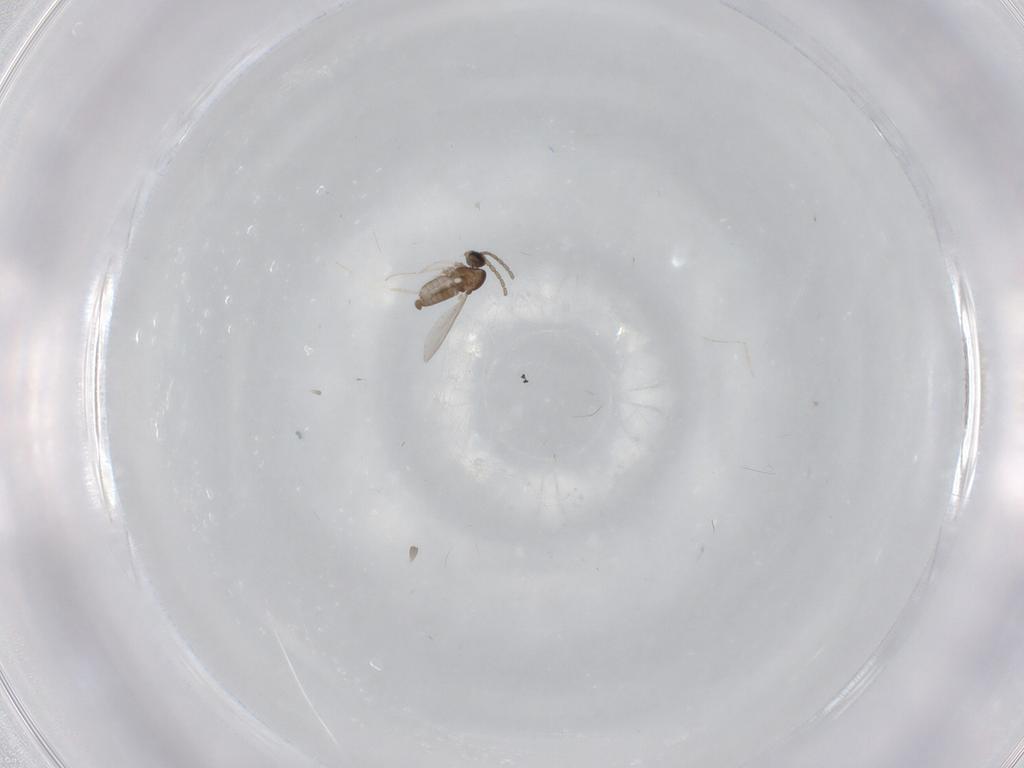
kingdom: Animalia
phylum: Arthropoda
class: Insecta
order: Diptera
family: Cecidomyiidae
